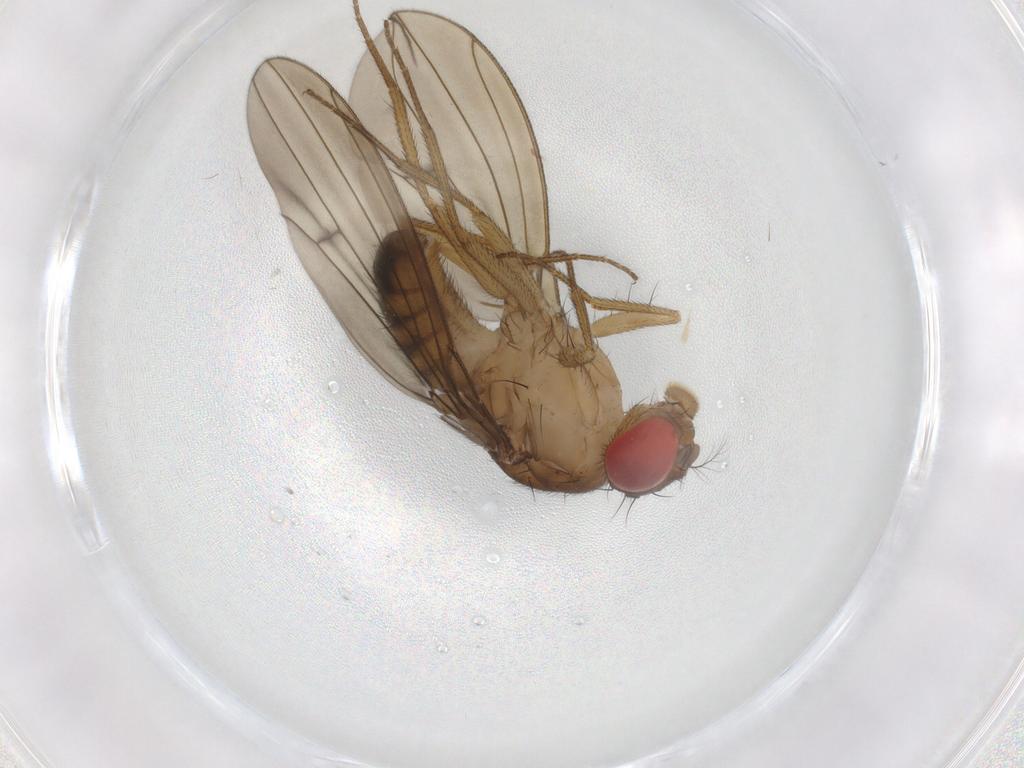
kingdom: Animalia
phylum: Arthropoda
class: Insecta
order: Diptera
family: Drosophilidae
